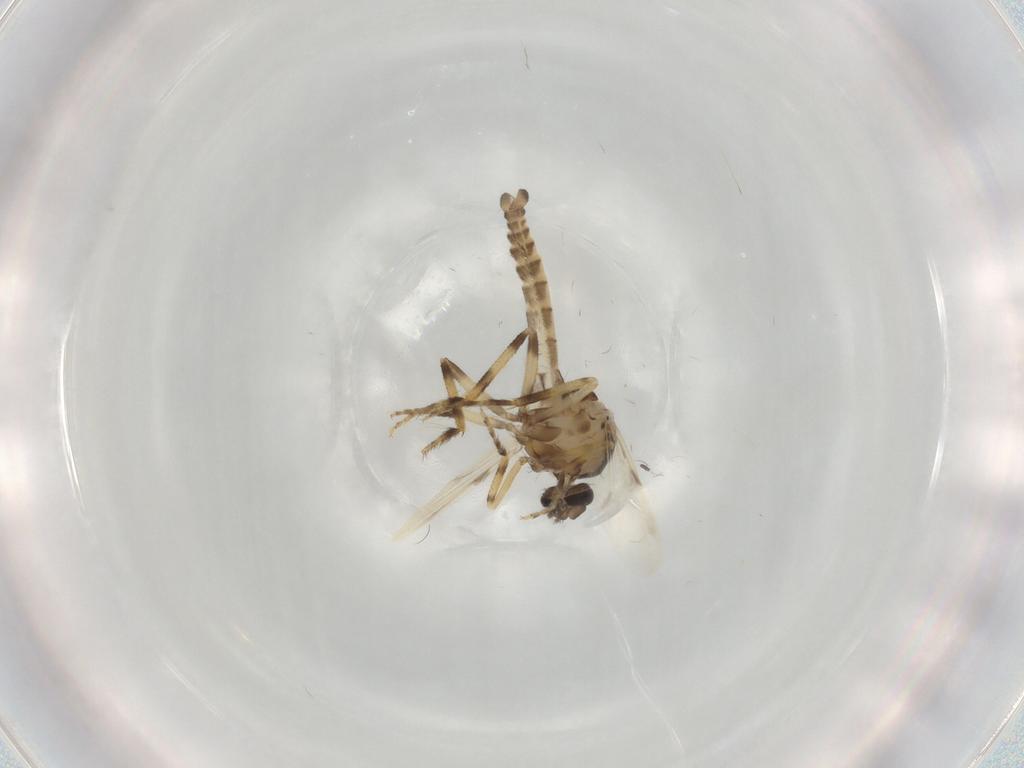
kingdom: Animalia
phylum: Arthropoda
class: Insecta
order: Diptera
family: Ceratopogonidae
